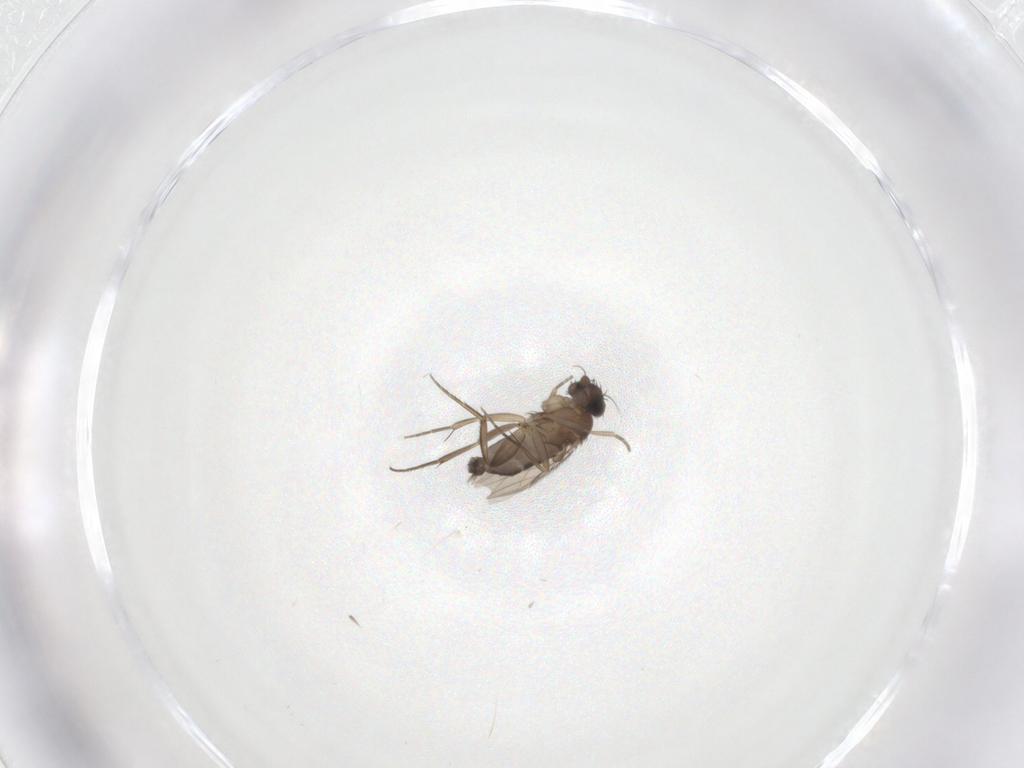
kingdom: Animalia
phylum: Arthropoda
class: Insecta
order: Diptera
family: Phoridae
